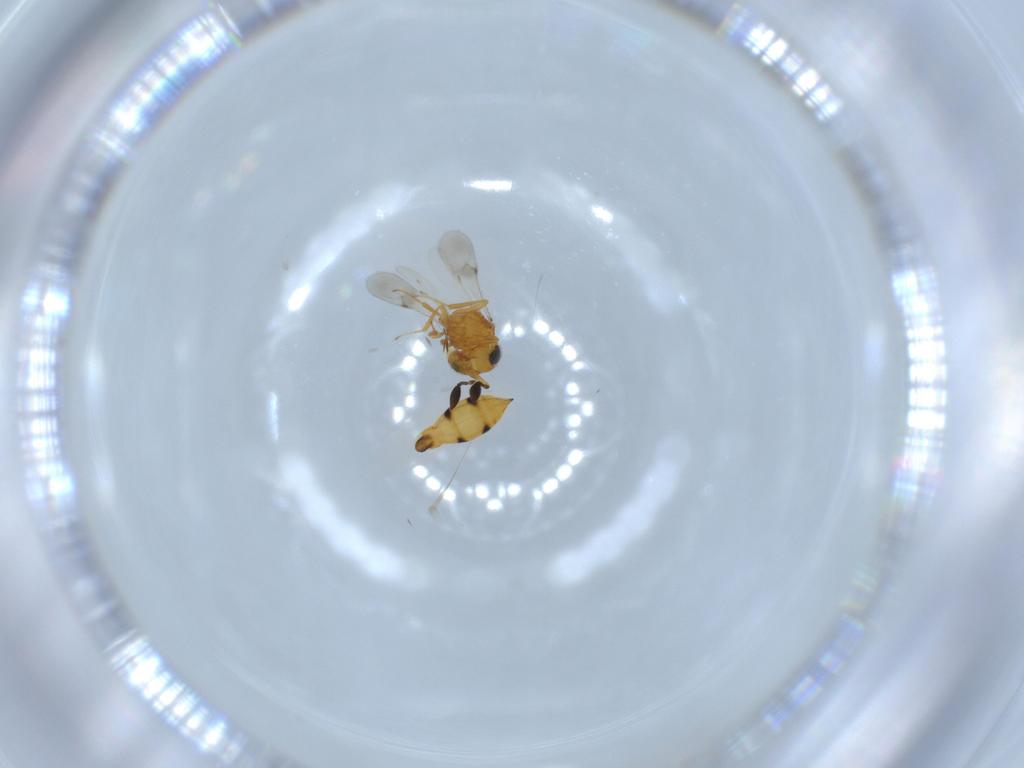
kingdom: Animalia
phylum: Arthropoda
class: Insecta
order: Hymenoptera
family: Scelionidae
